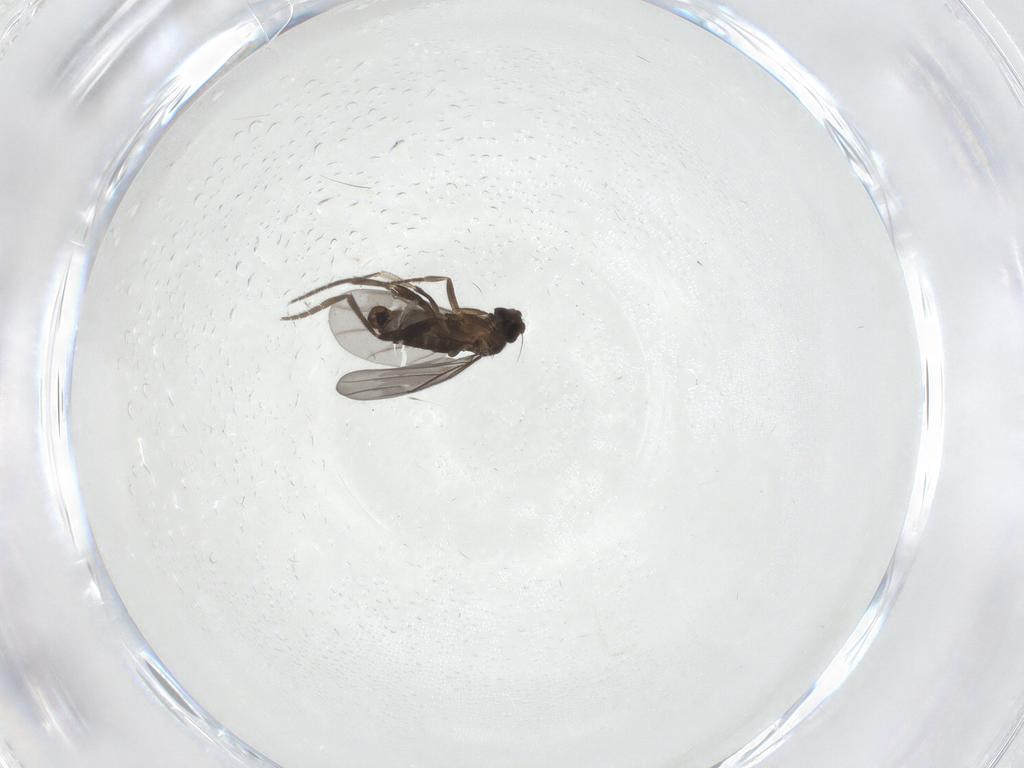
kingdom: Animalia
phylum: Arthropoda
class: Insecta
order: Diptera
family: Phoridae
